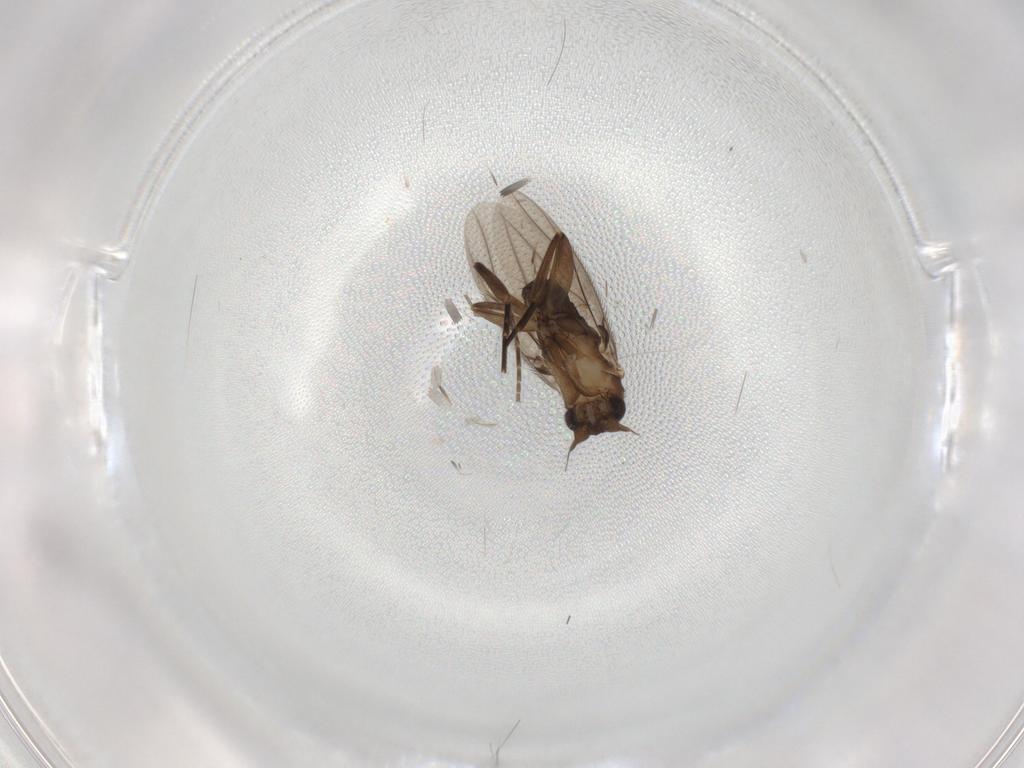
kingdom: Animalia
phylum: Arthropoda
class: Insecta
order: Diptera
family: Phoridae
